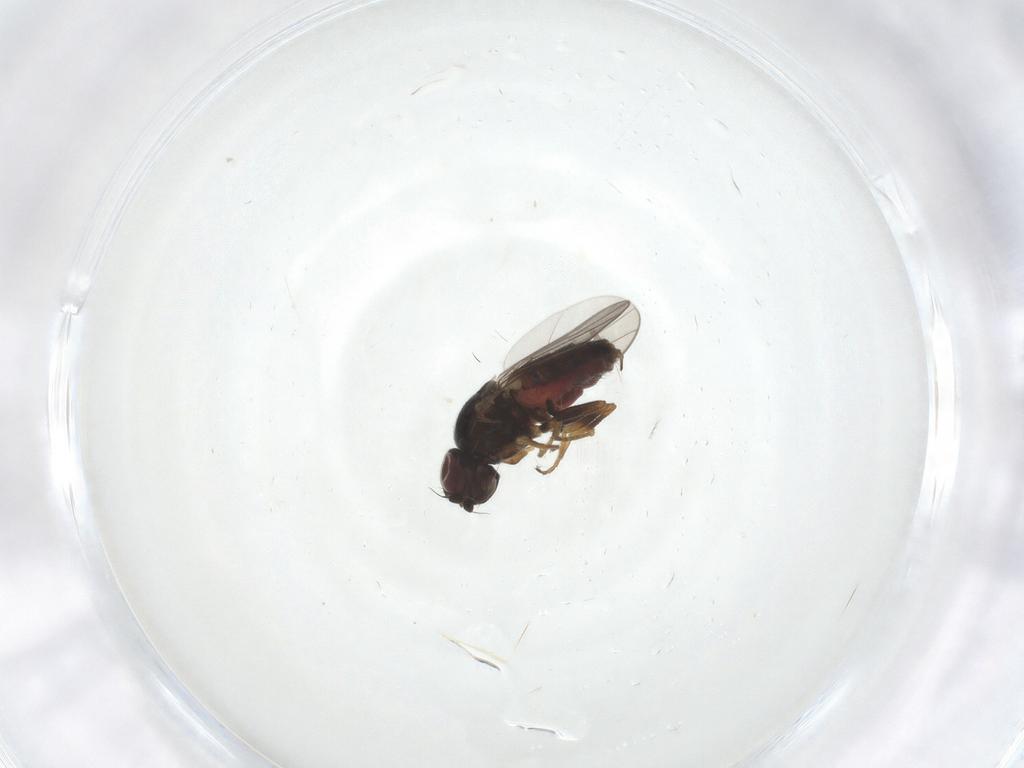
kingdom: Animalia
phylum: Arthropoda
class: Insecta
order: Diptera
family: Chloropidae
